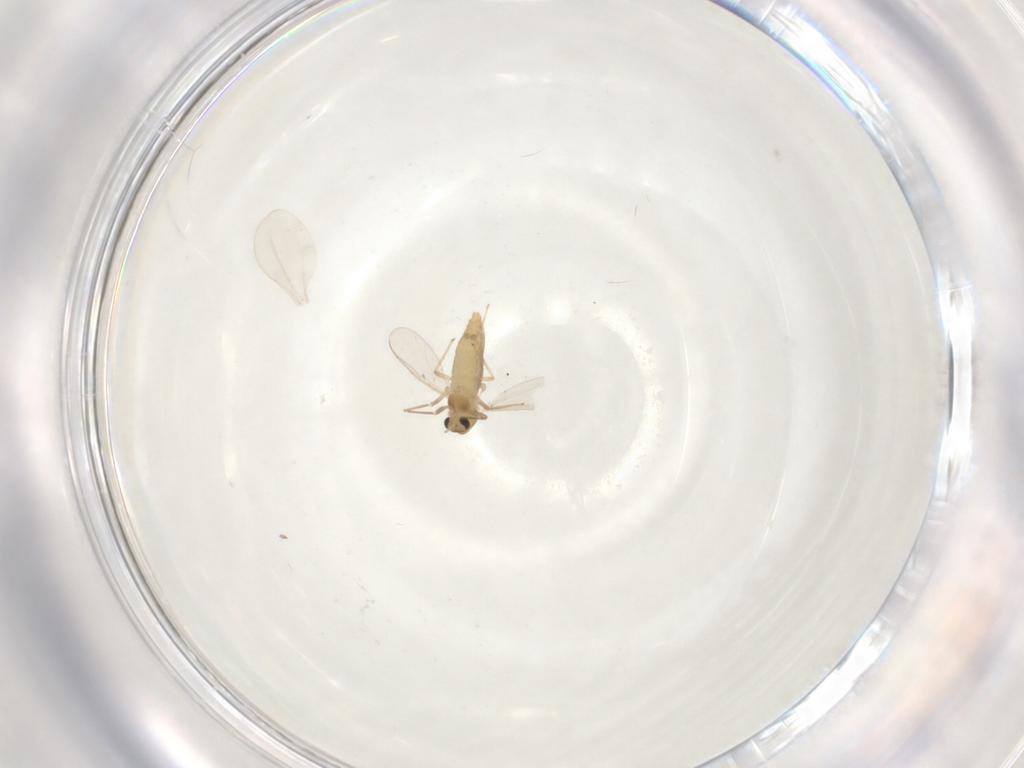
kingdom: Animalia
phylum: Arthropoda
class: Insecta
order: Diptera
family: Chironomidae
